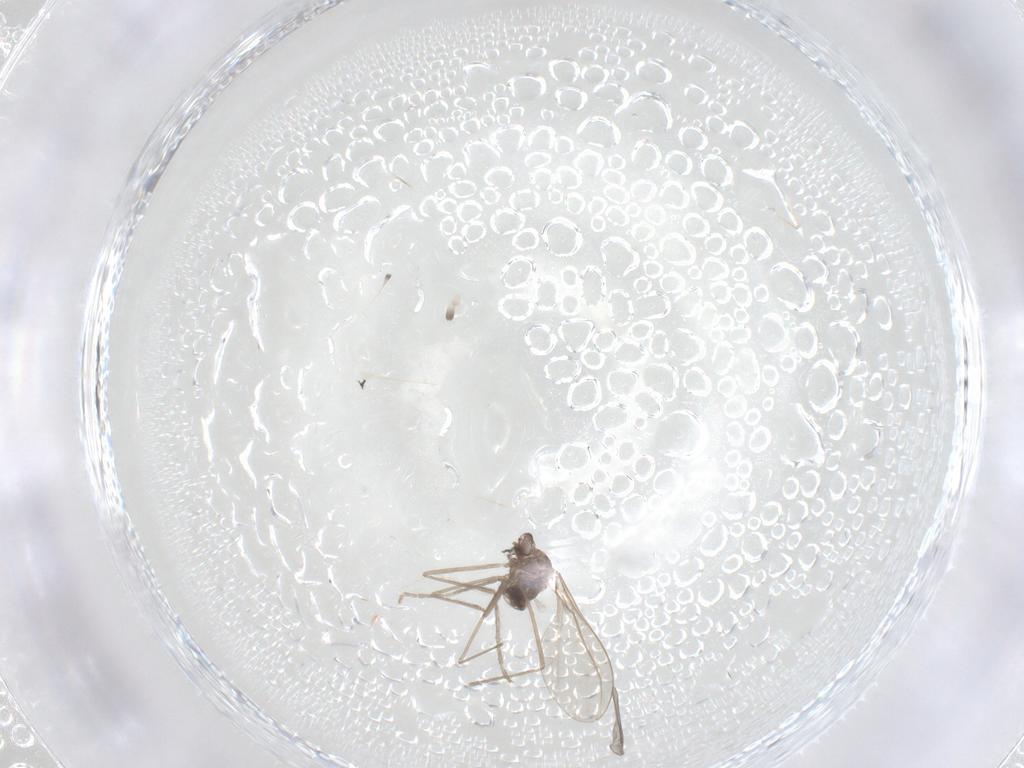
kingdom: Animalia
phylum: Arthropoda
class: Insecta
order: Diptera
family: Cecidomyiidae
